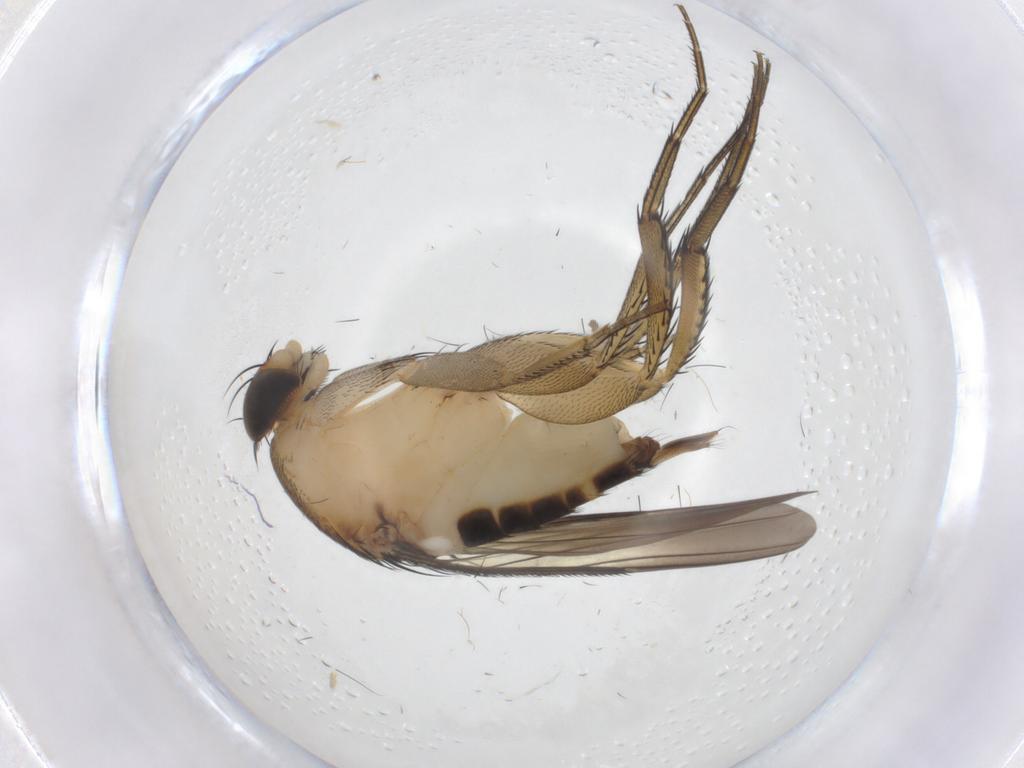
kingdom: Animalia
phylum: Arthropoda
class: Insecta
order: Diptera
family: Phoridae
